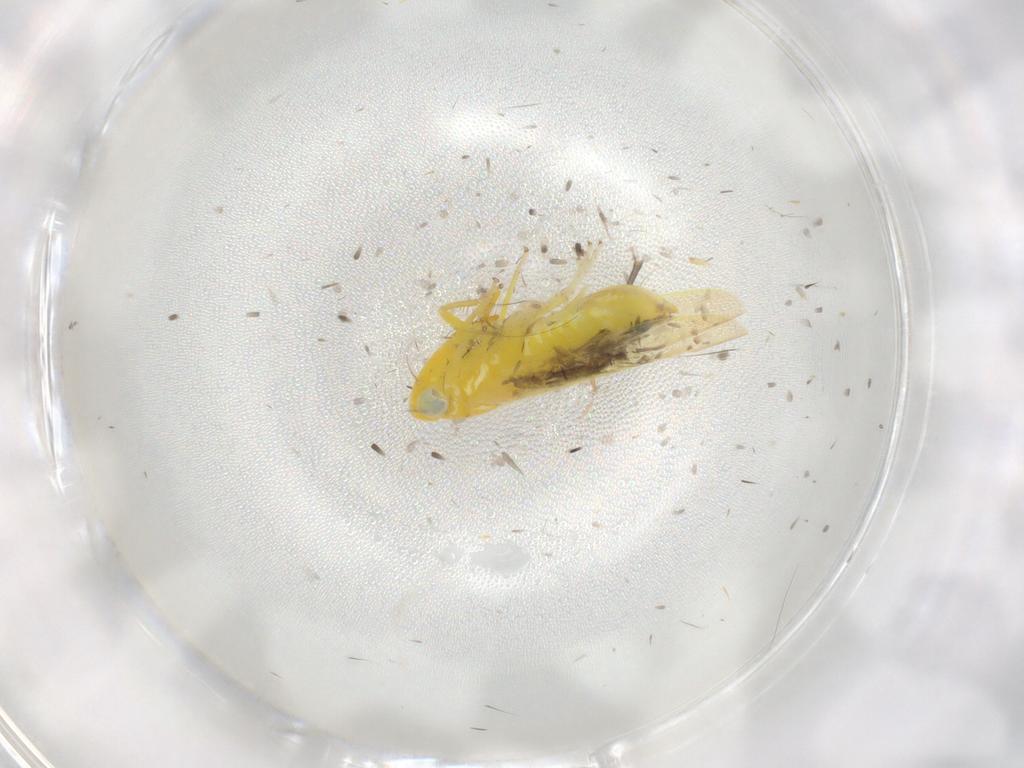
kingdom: Animalia
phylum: Arthropoda
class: Insecta
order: Hemiptera
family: Cicadellidae
